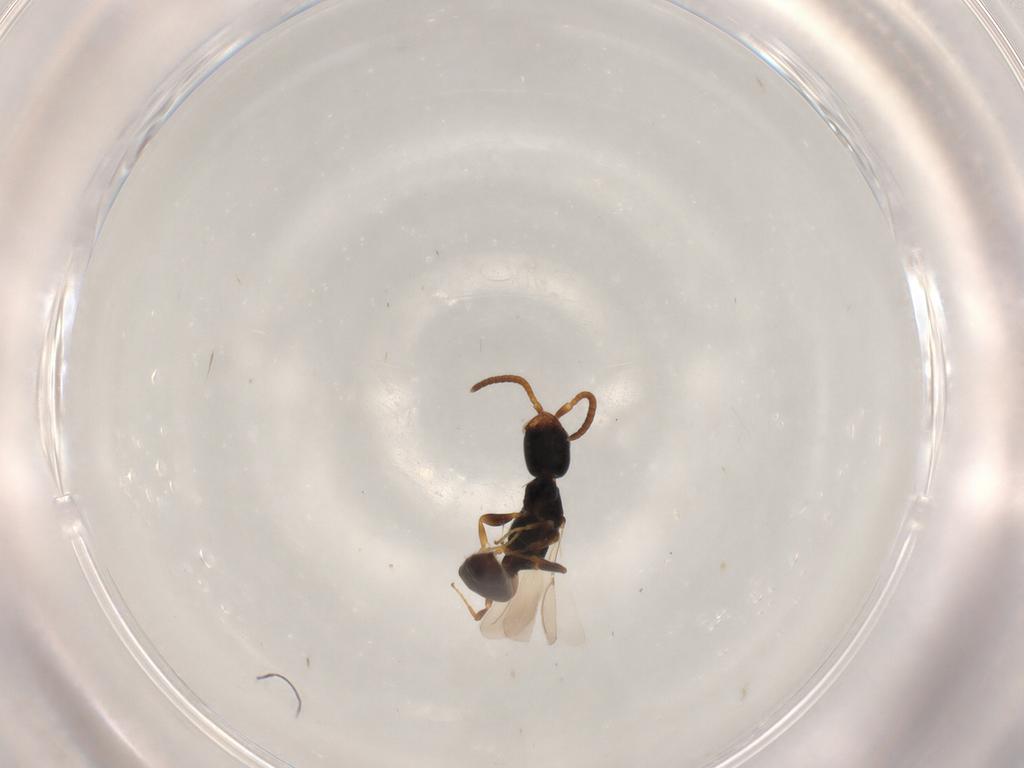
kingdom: Animalia
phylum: Arthropoda
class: Insecta
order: Hymenoptera
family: Bethylidae
